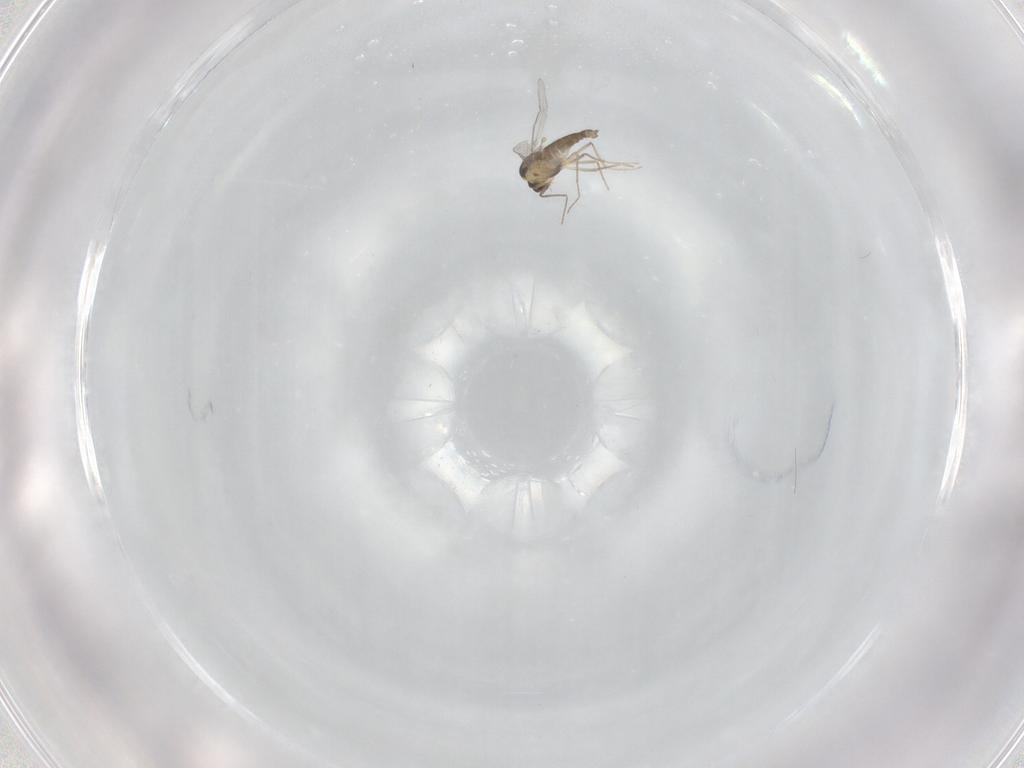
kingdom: Animalia
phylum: Arthropoda
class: Insecta
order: Diptera
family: Chironomidae
